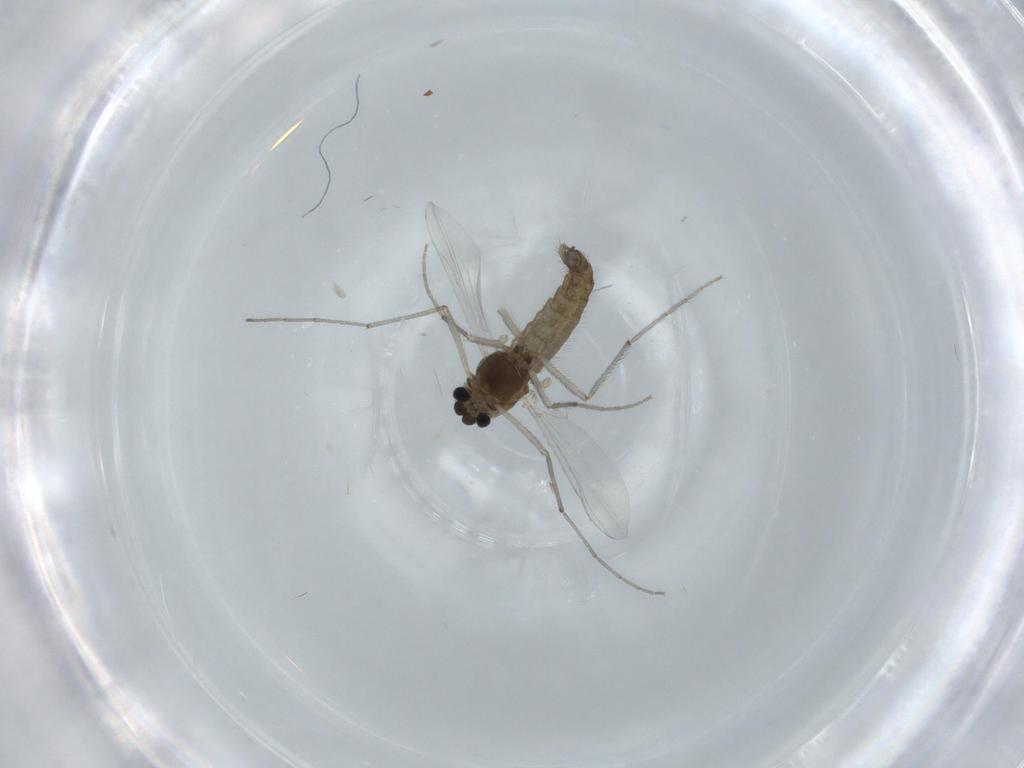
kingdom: Animalia
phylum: Arthropoda
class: Insecta
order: Diptera
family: Chironomidae
